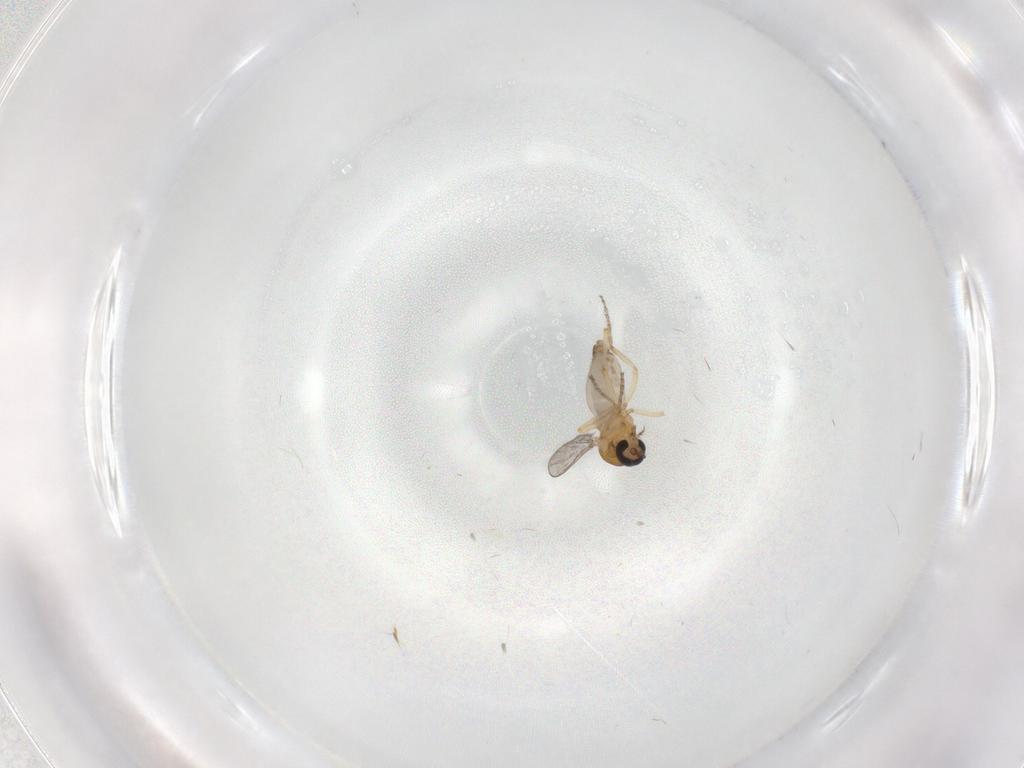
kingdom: Animalia
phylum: Arthropoda
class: Insecta
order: Diptera
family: Ceratopogonidae
